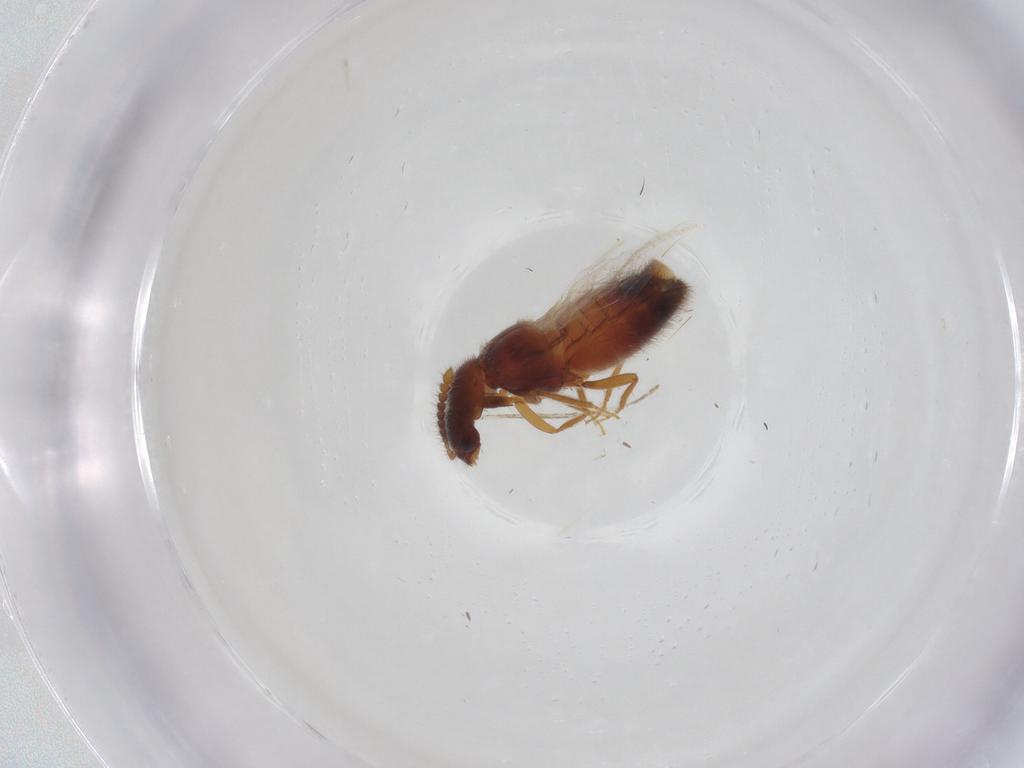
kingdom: Animalia
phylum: Arthropoda
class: Insecta
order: Coleoptera
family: Staphylinidae
